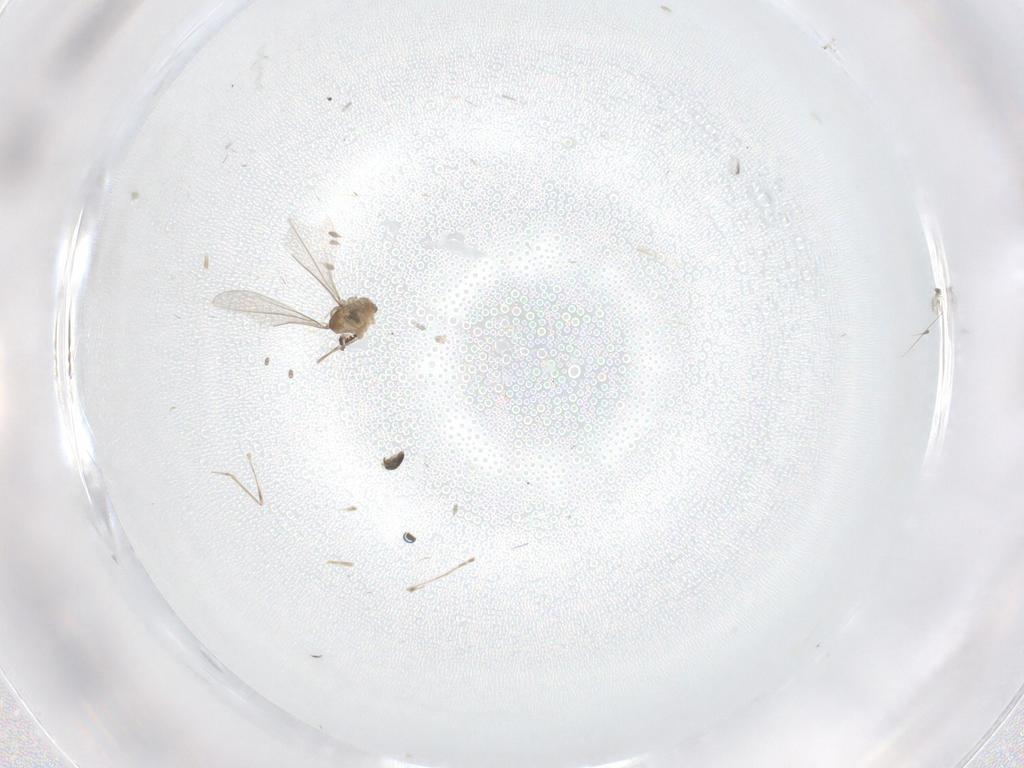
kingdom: Animalia
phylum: Arthropoda
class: Insecta
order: Diptera
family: Cecidomyiidae
